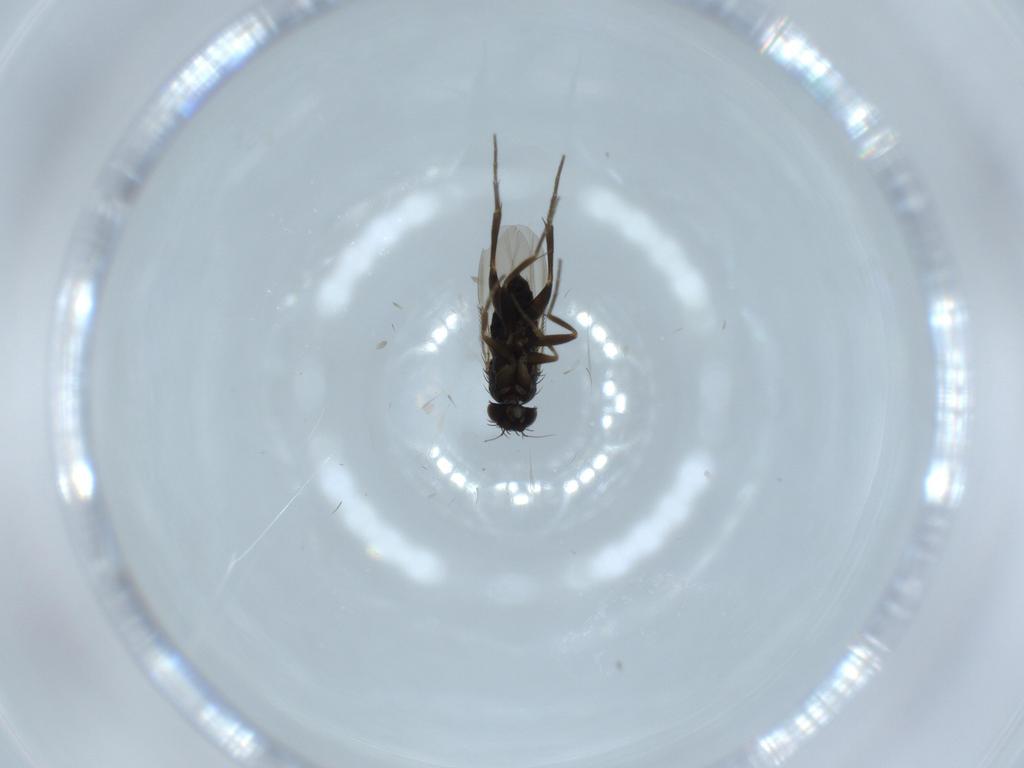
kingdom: Animalia
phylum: Arthropoda
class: Insecta
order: Diptera
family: Phoridae
